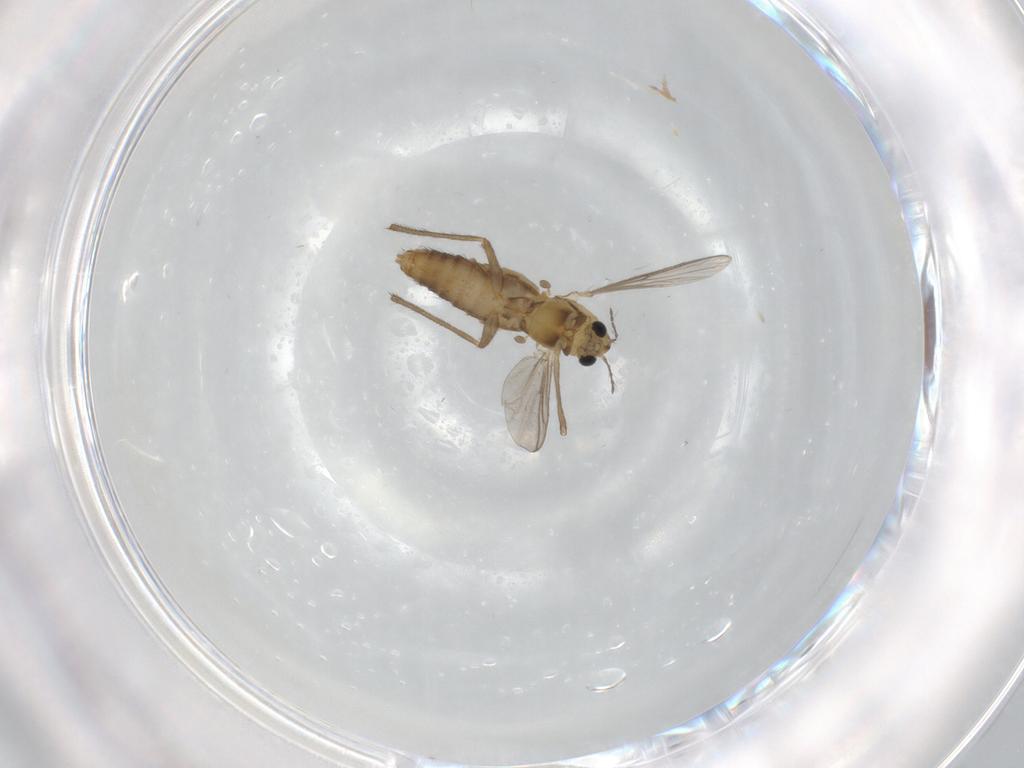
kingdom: Animalia
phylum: Arthropoda
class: Insecta
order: Diptera
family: Chironomidae
